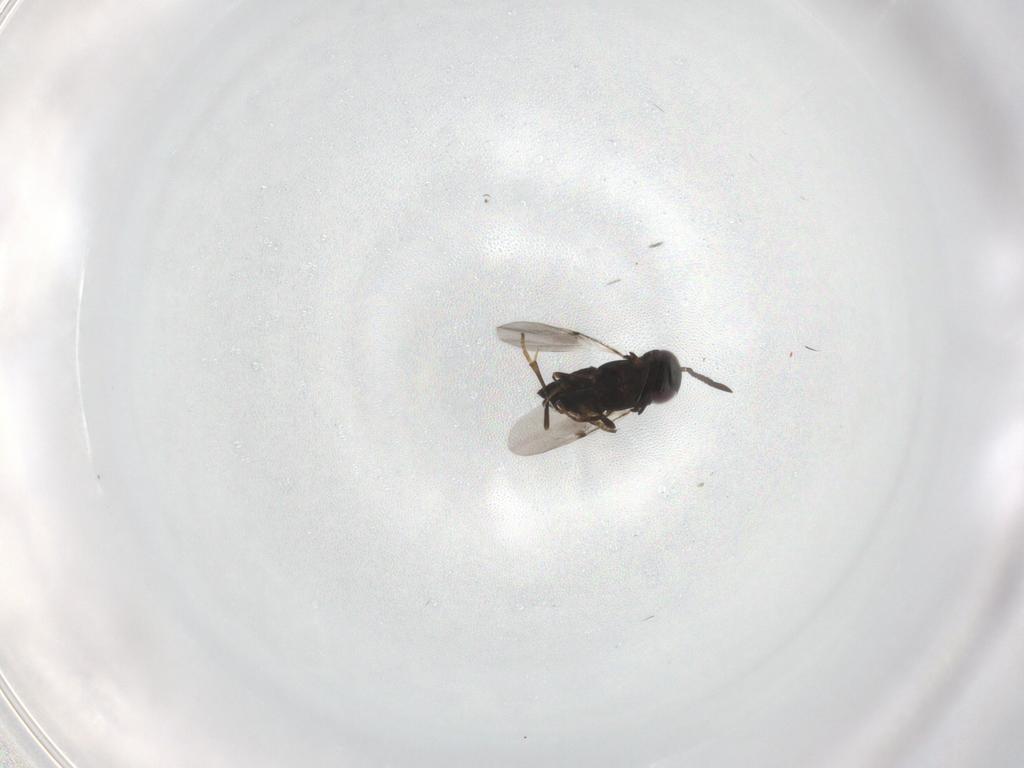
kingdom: Animalia
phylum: Arthropoda
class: Insecta
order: Hymenoptera
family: Encyrtidae
